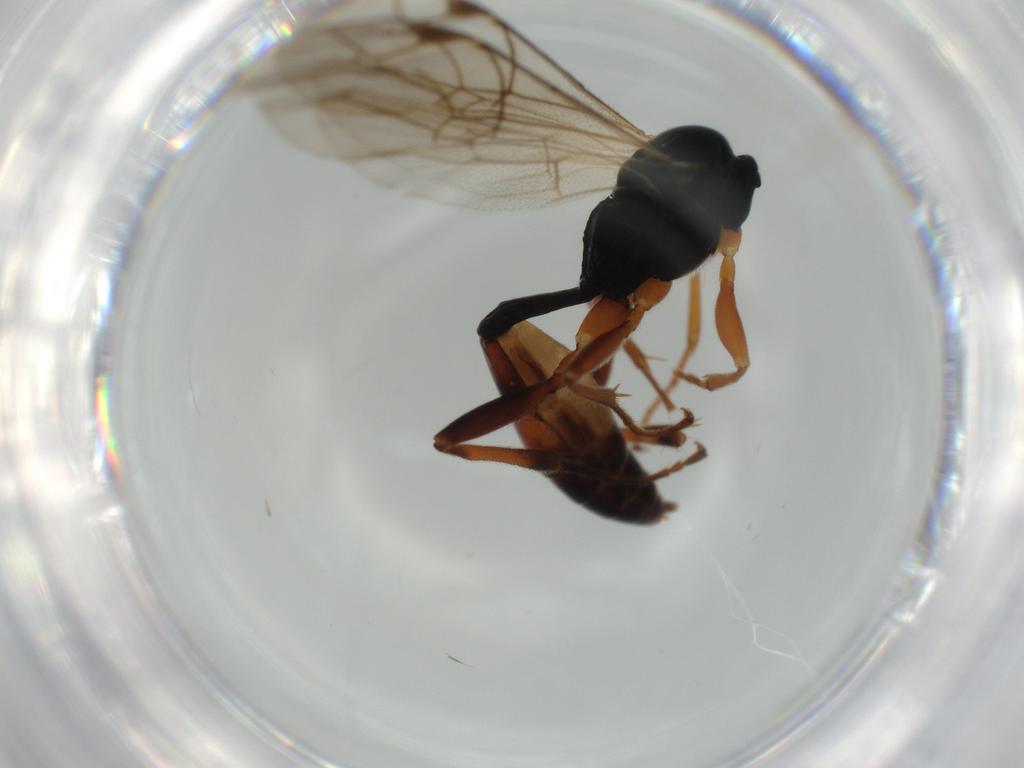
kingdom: Animalia
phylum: Arthropoda
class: Insecta
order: Hymenoptera
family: Ichneumonidae
